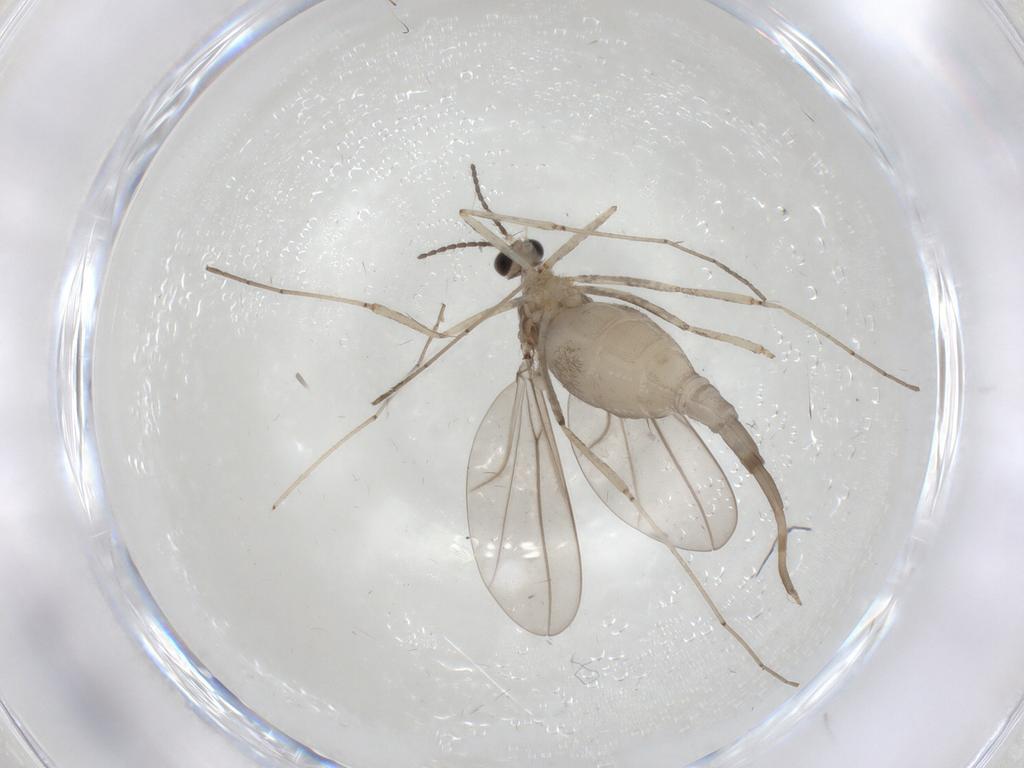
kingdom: Animalia
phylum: Arthropoda
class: Insecta
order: Diptera
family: Cecidomyiidae
